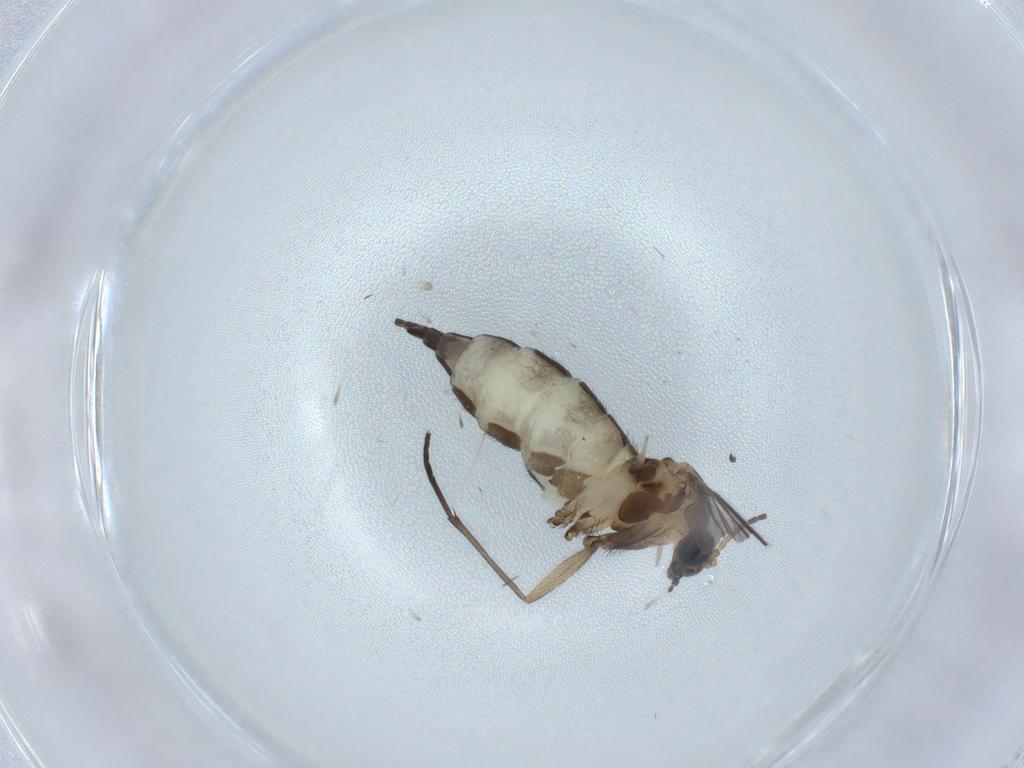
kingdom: Animalia
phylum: Arthropoda
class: Insecta
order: Diptera
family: Sciaridae
